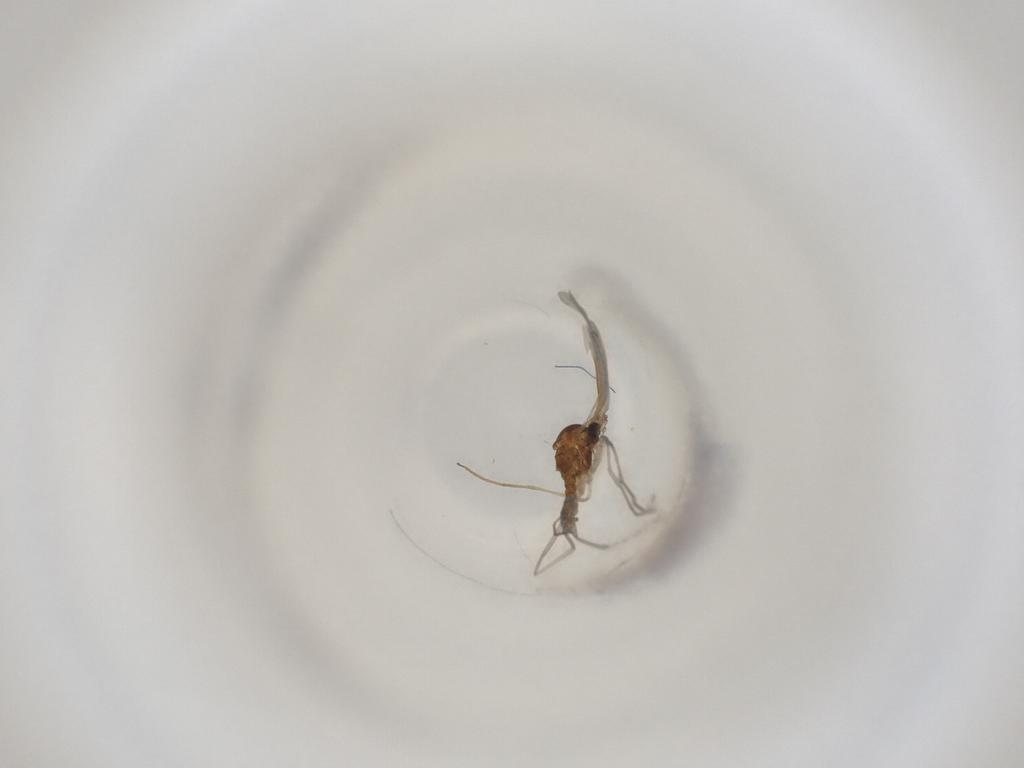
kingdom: Animalia
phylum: Arthropoda
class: Insecta
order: Diptera
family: Cecidomyiidae
